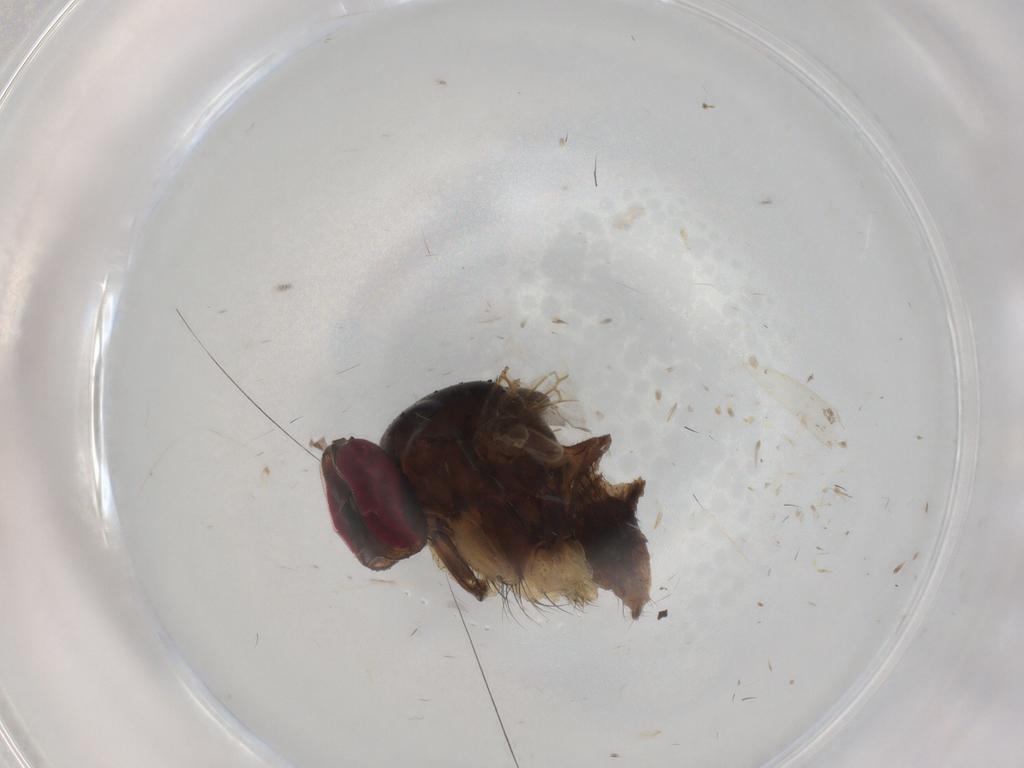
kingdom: Animalia
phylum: Arthropoda
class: Insecta
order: Diptera
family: Muscidae
